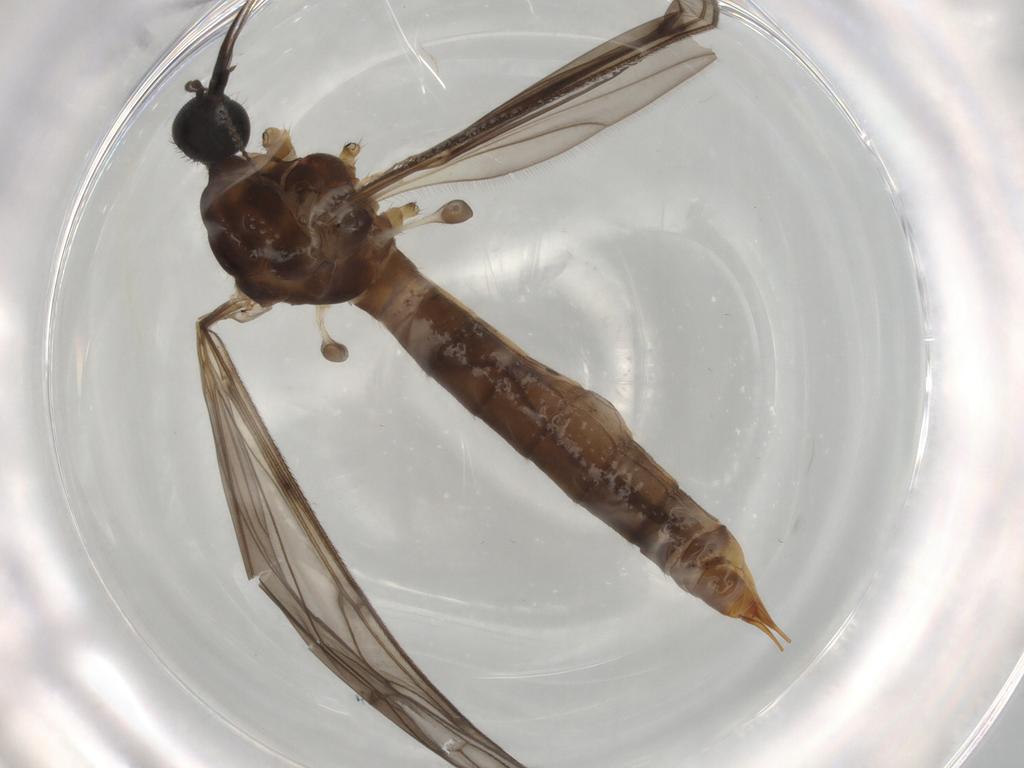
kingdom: Animalia
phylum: Arthropoda
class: Insecta
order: Diptera
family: Limoniidae
